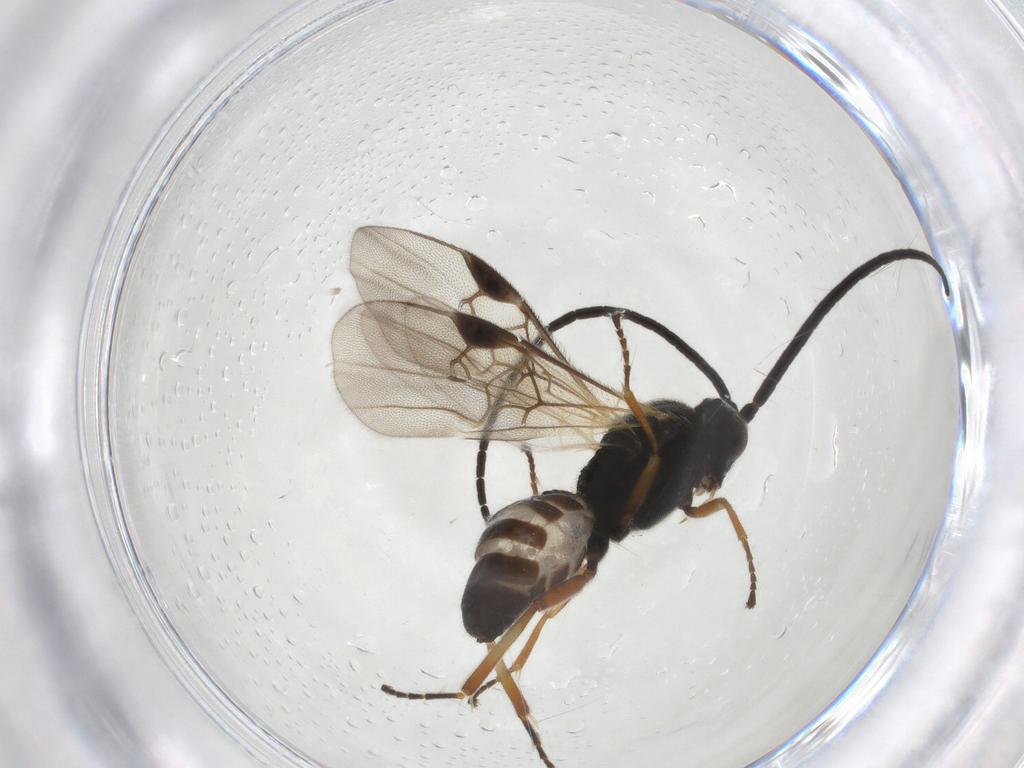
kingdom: Animalia
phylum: Arthropoda
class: Insecta
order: Hymenoptera
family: Braconidae
